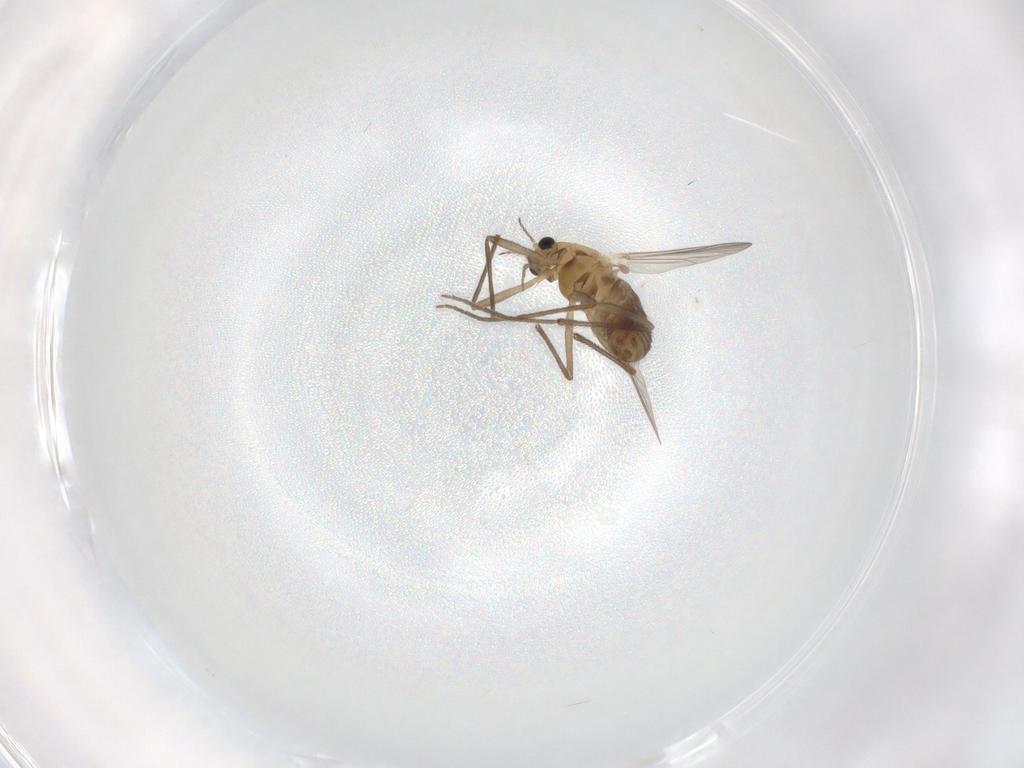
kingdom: Animalia
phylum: Arthropoda
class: Insecta
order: Diptera
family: Chironomidae
